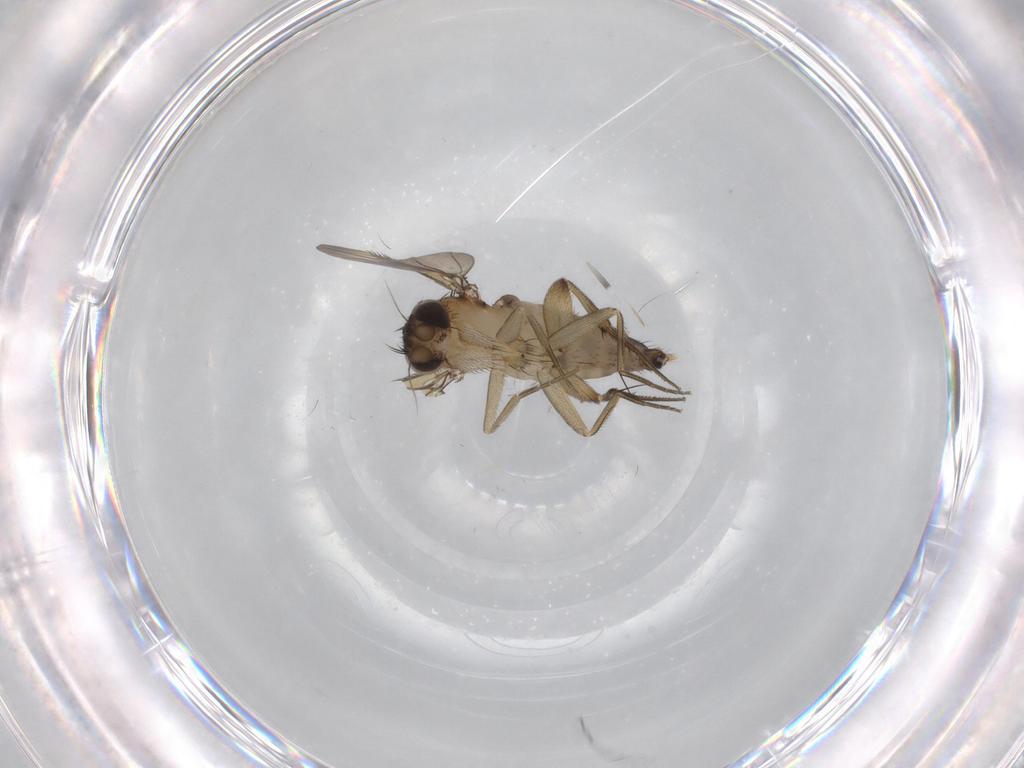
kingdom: Animalia
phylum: Arthropoda
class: Insecta
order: Diptera
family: Phoridae
